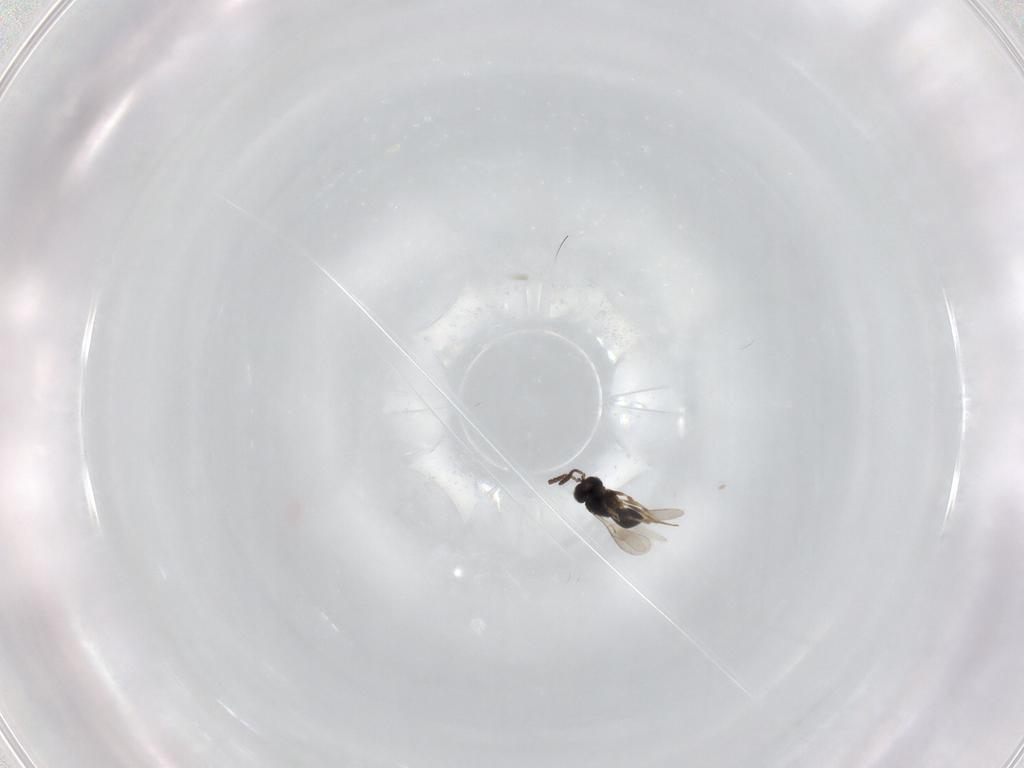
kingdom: Animalia
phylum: Arthropoda
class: Insecta
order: Hymenoptera
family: Scelionidae
